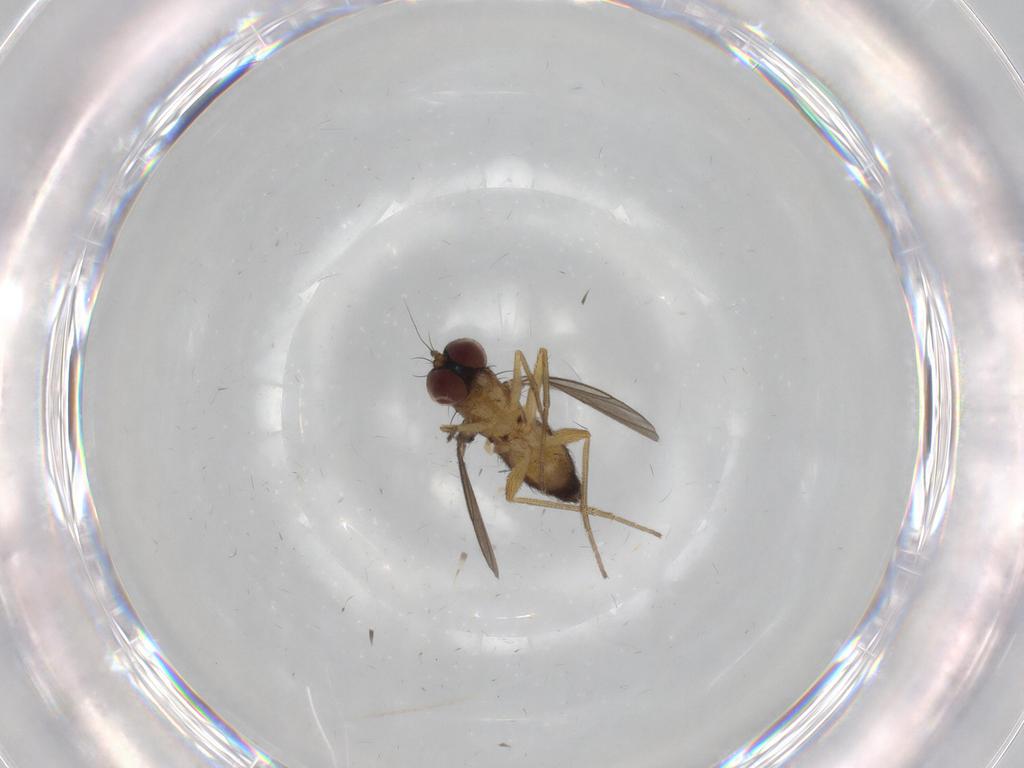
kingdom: Animalia
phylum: Arthropoda
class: Insecta
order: Diptera
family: Dolichopodidae
